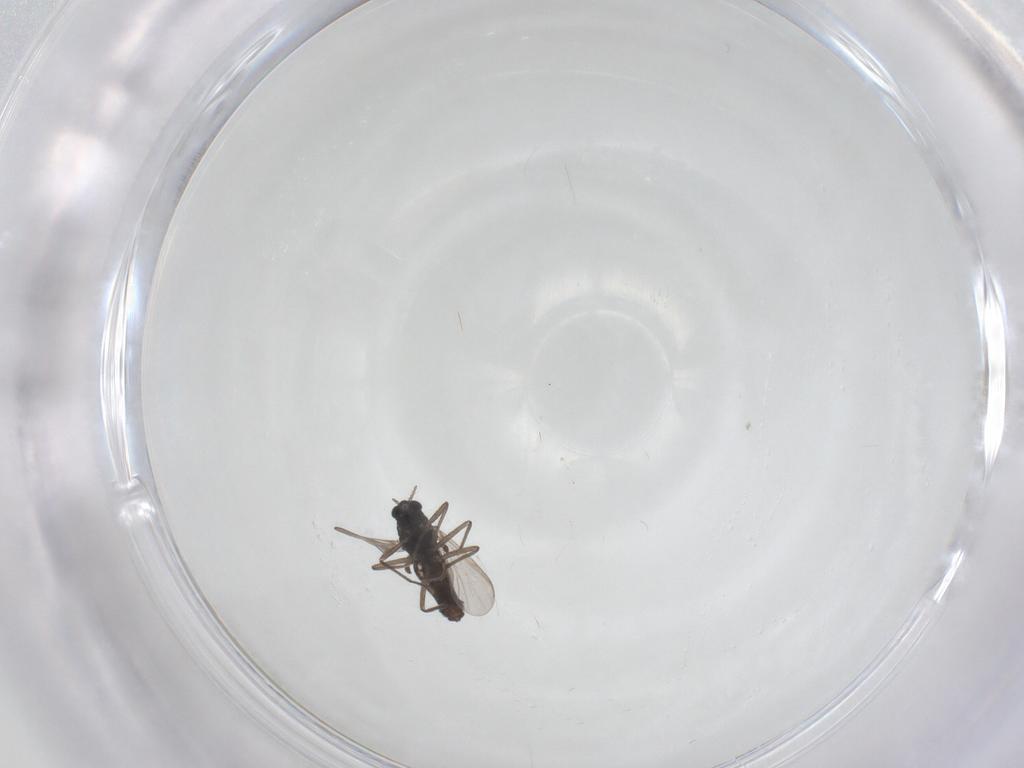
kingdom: Animalia
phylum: Arthropoda
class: Insecta
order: Diptera
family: Chironomidae
